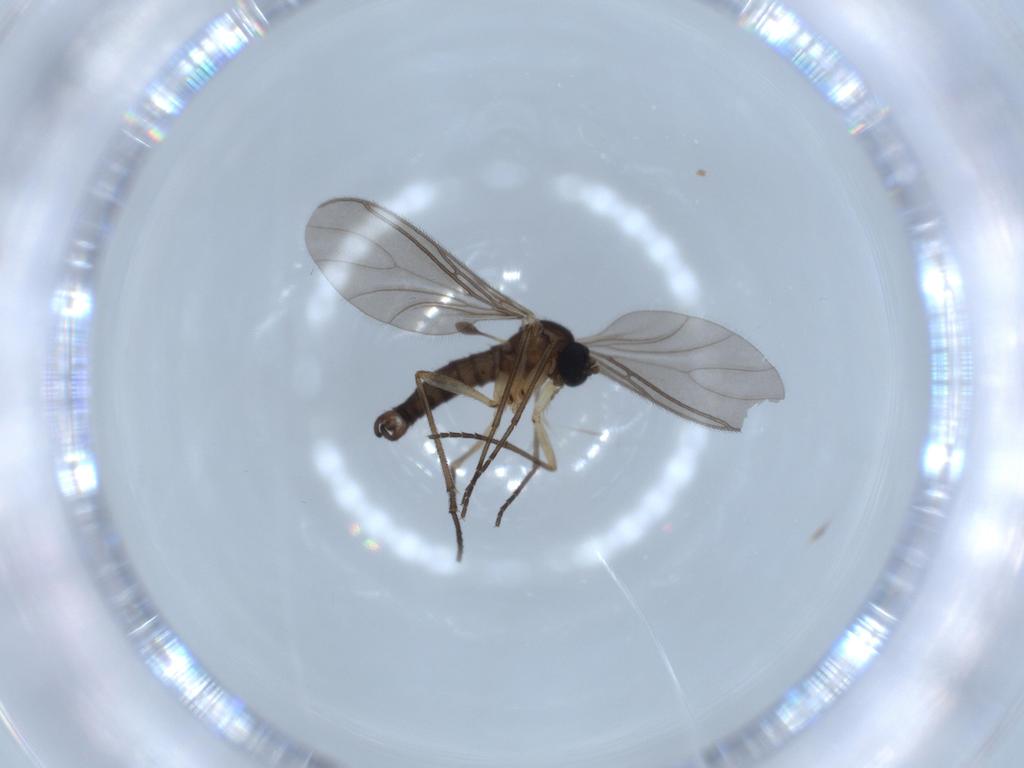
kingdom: Animalia
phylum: Arthropoda
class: Insecta
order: Diptera
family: Sciaridae
